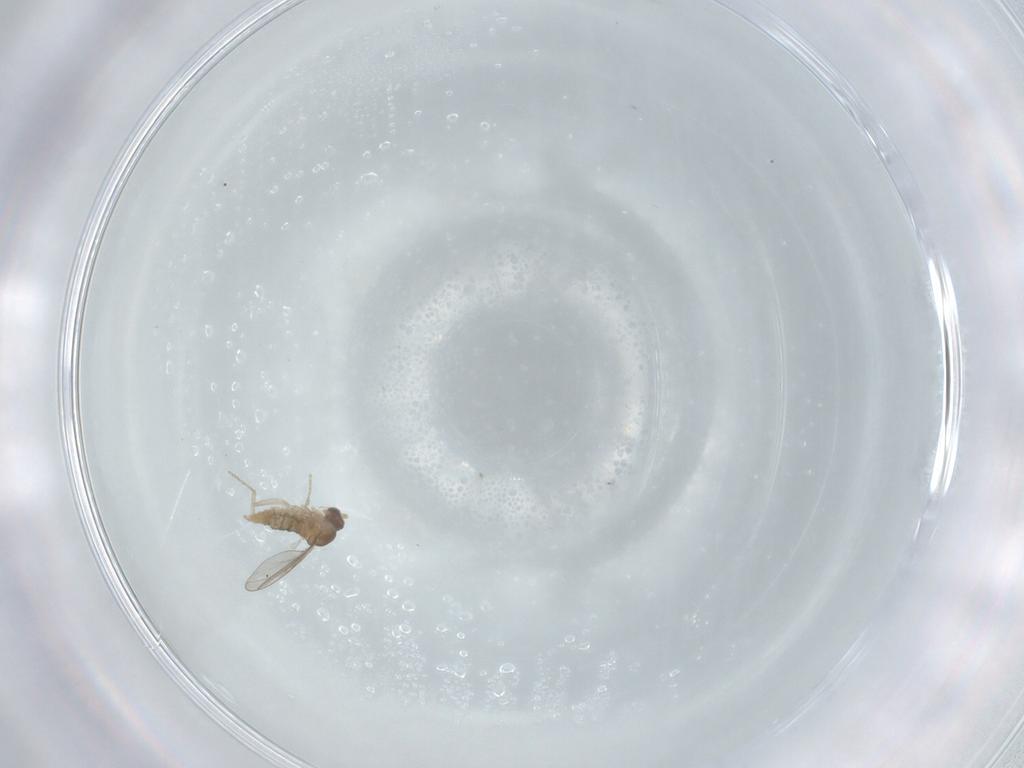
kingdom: Animalia
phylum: Arthropoda
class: Insecta
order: Diptera
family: Cecidomyiidae
